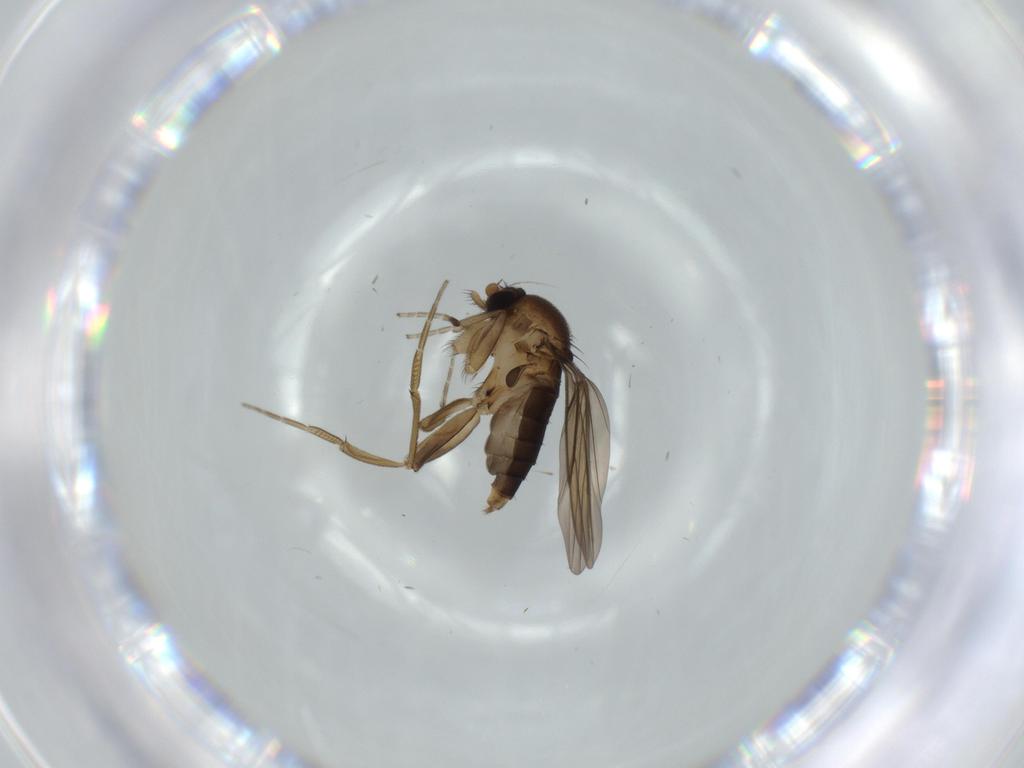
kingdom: Animalia
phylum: Arthropoda
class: Insecta
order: Diptera
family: Phoridae
